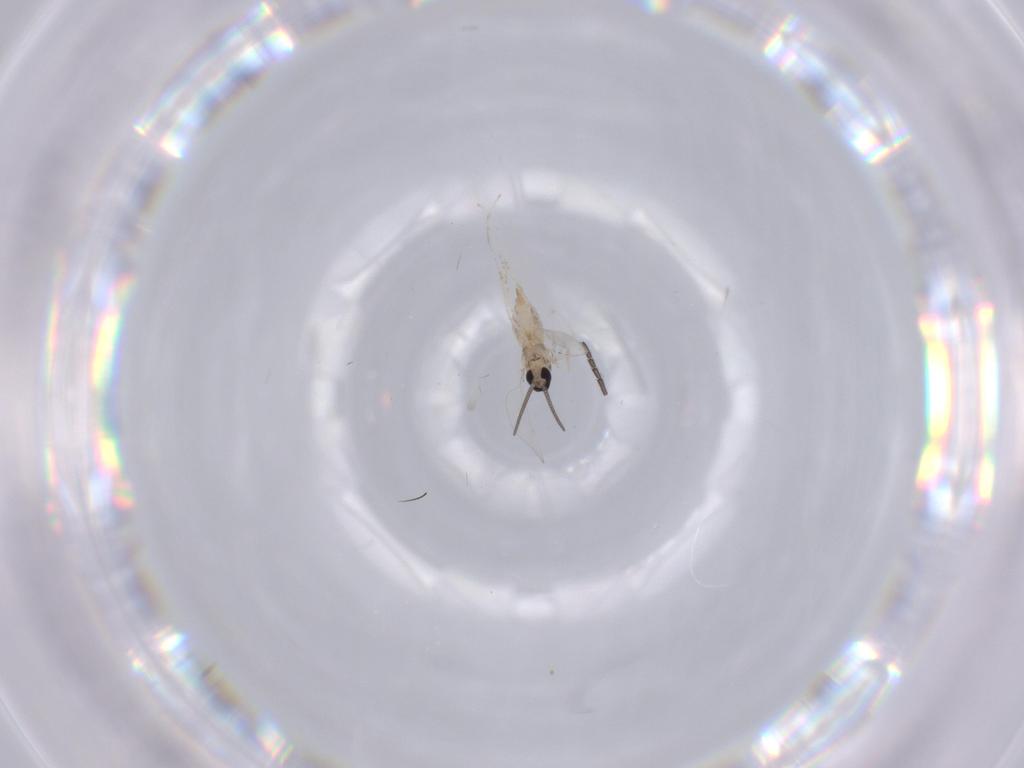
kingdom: Animalia
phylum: Arthropoda
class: Insecta
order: Diptera
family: Cecidomyiidae
